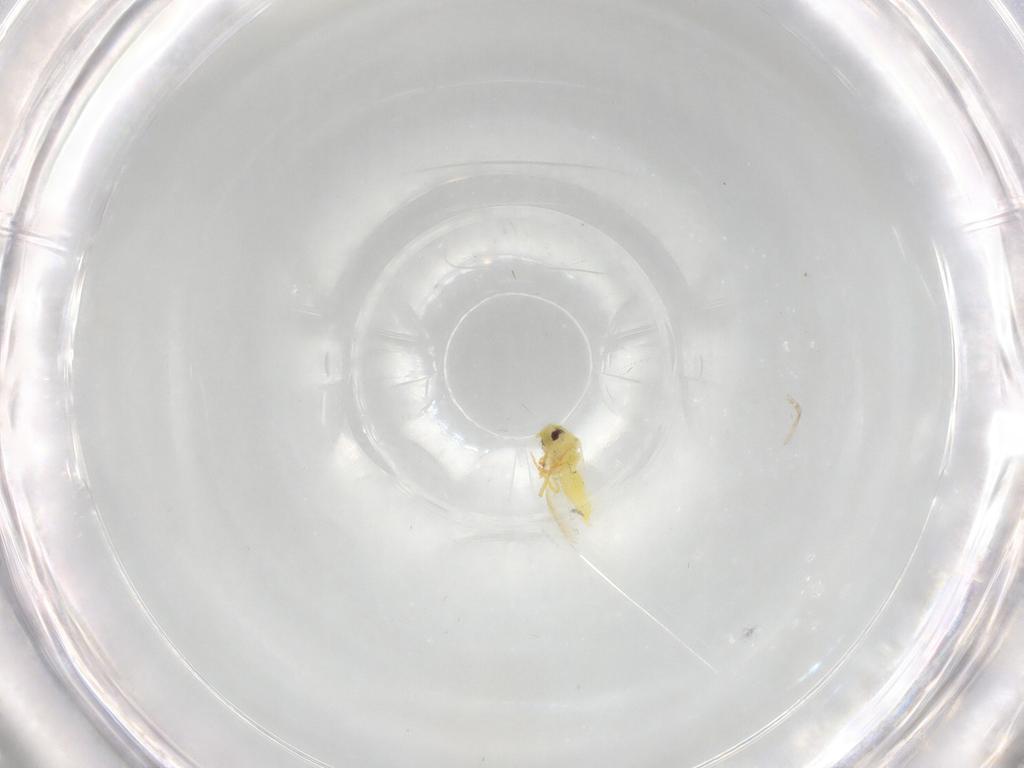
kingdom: Animalia
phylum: Arthropoda
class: Insecta
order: Hemiptera
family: Aleyrodidae
